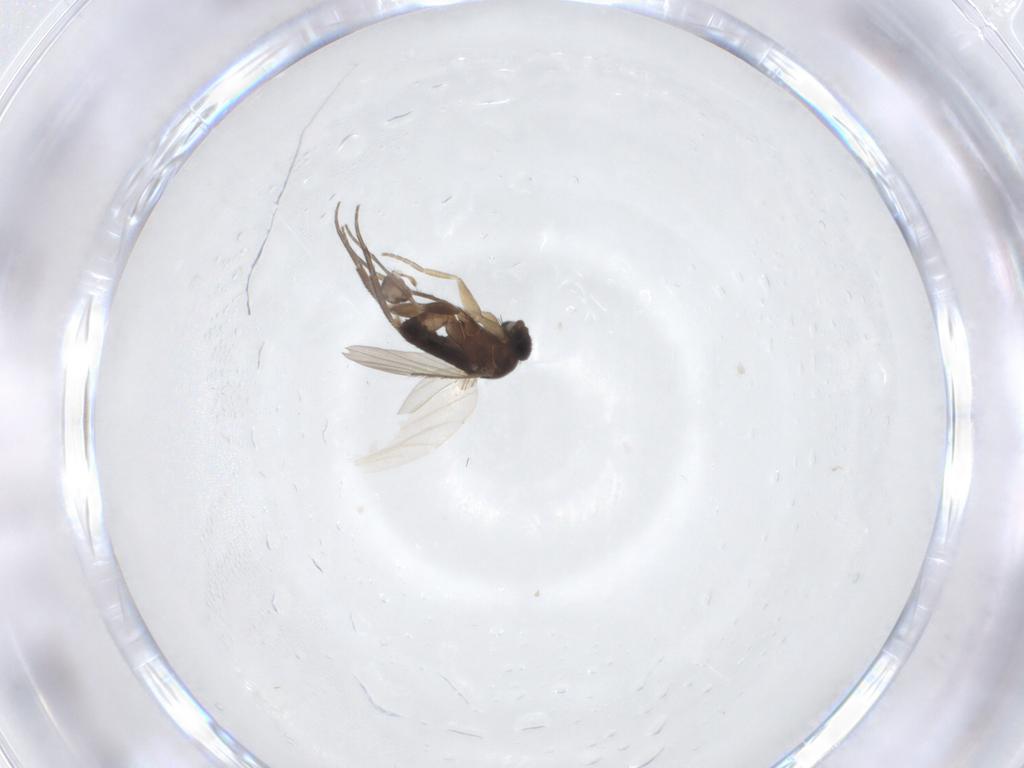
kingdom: Animalia
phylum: Arthropoda
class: Insecta
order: Diptera
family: Sphaeroceridae
